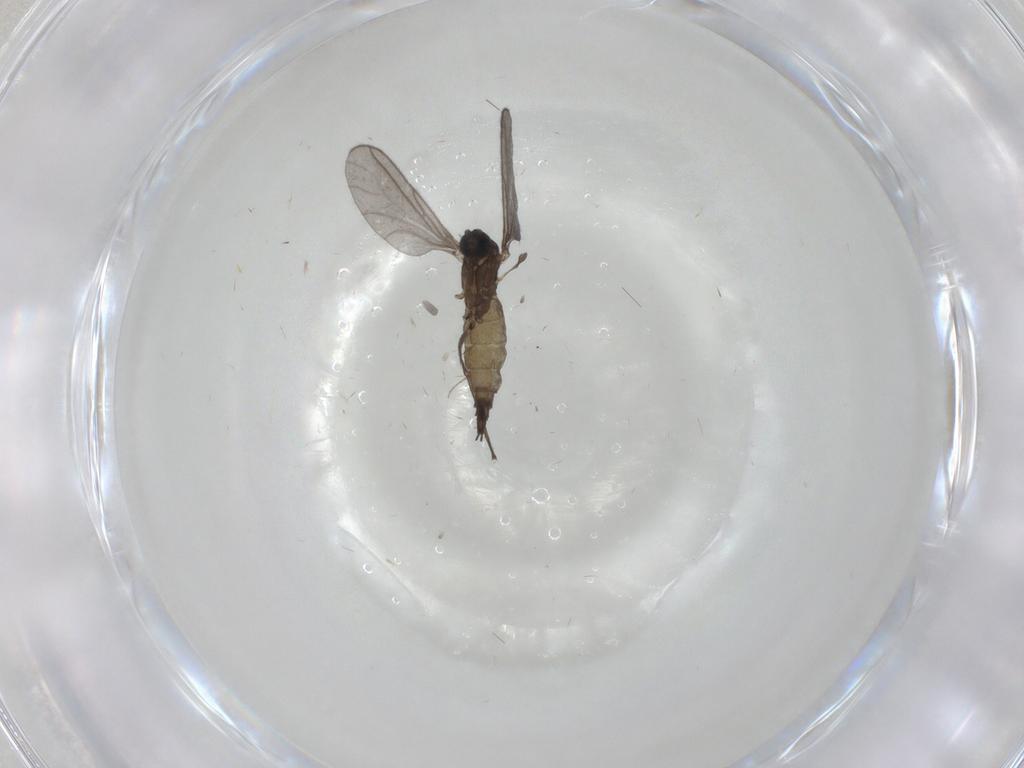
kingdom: Animalia
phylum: Arthropoda
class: Insecta
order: Diptera
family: Sciaridae
